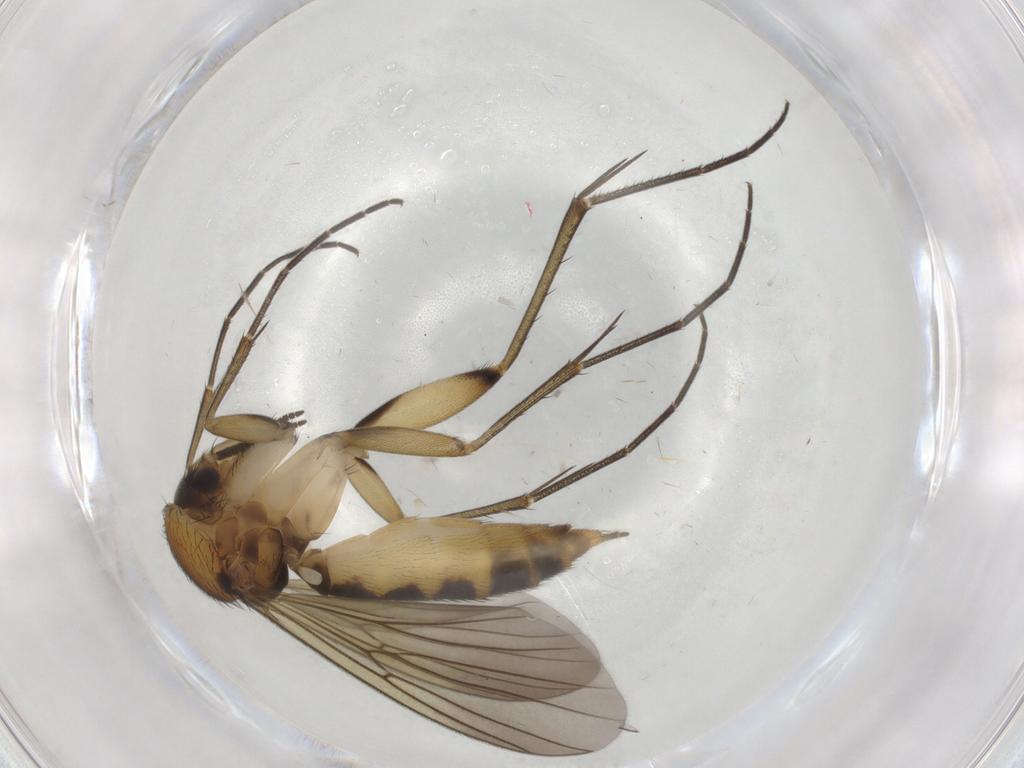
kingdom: Animalia
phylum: Arthropoda
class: Insecta
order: Diptera
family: Mycetophilidae
